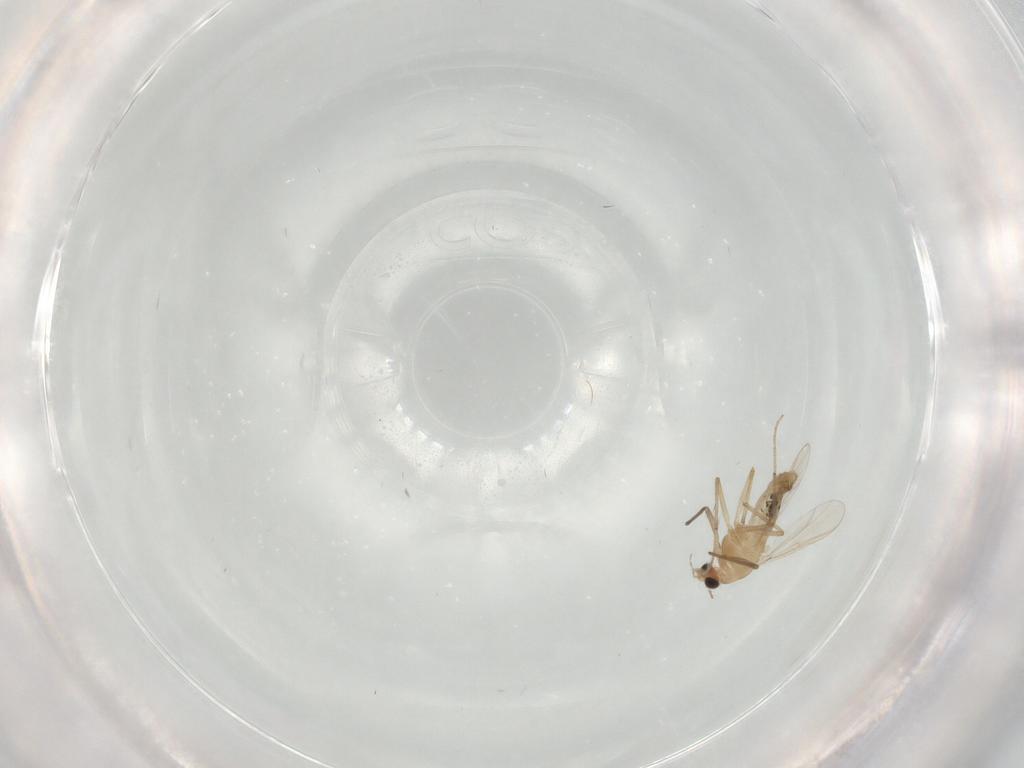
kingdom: Animalia
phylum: Arthropoda
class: Insecta
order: Diptera
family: Chironomidae
